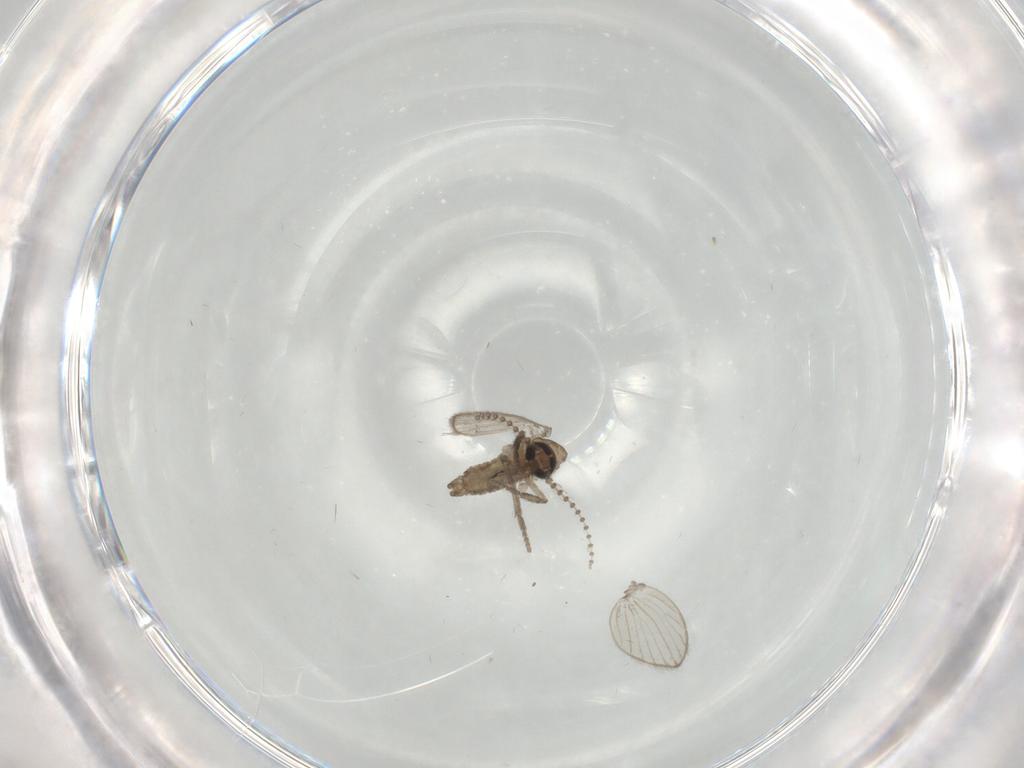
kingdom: Animalia
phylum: Arthropoda
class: Insecta
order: Diptera
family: Psychodidae
